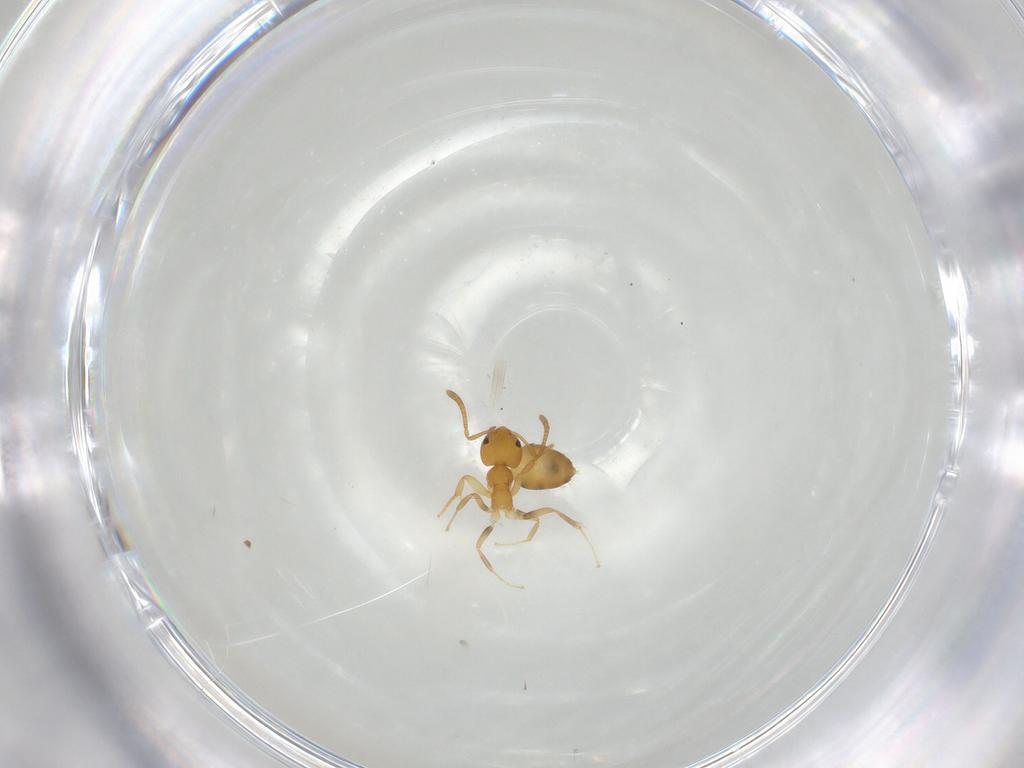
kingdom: Animalia
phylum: Arthropoda
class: Insecta
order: Hymenoptera
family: Formicidae
